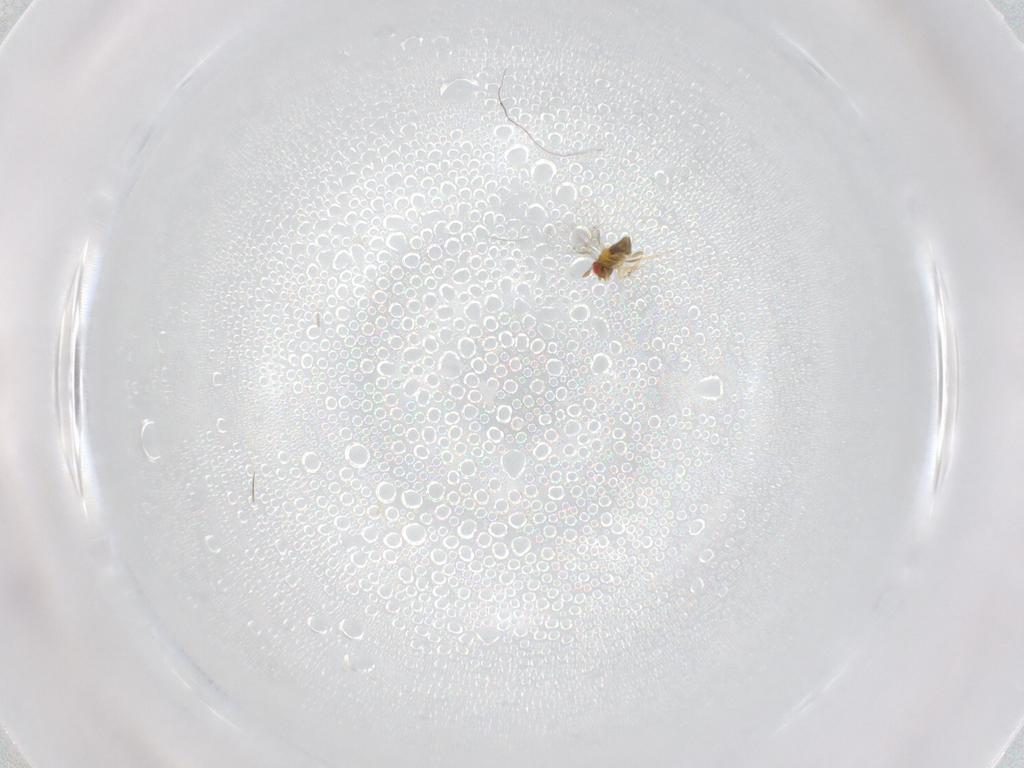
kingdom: Animalia
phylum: Arthropoda
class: Insecta
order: Hymenoptera
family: Trichogrammatidae
